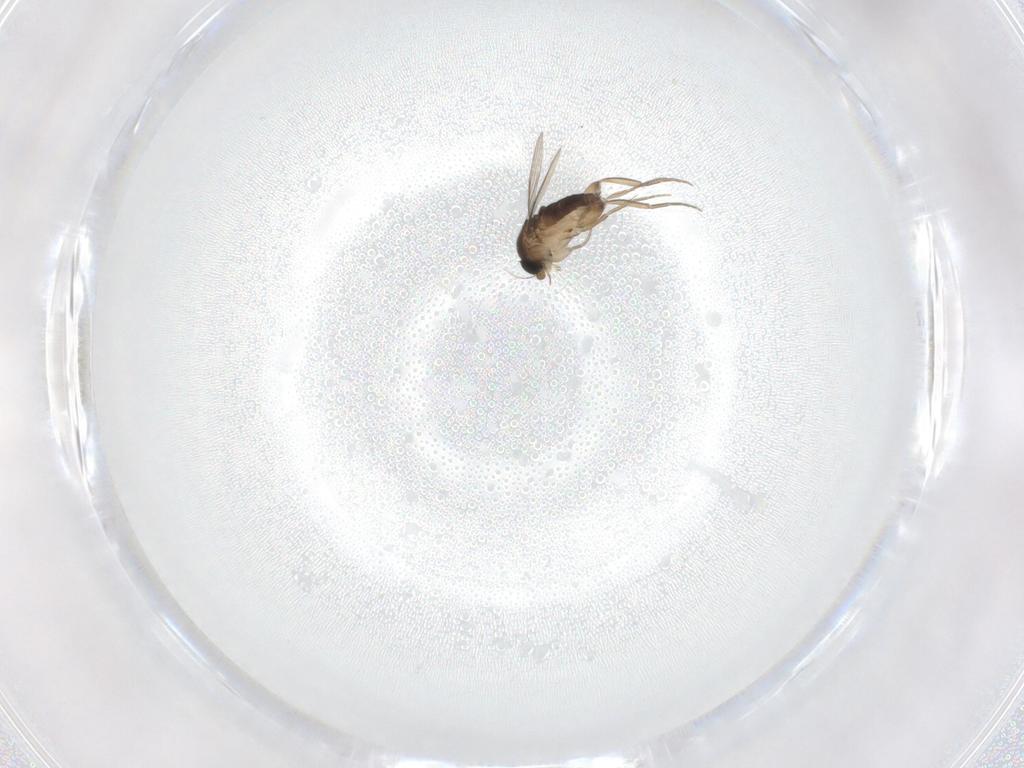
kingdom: Animalia
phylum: Arthropoda
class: Insecta
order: Diptera
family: Phoridae
